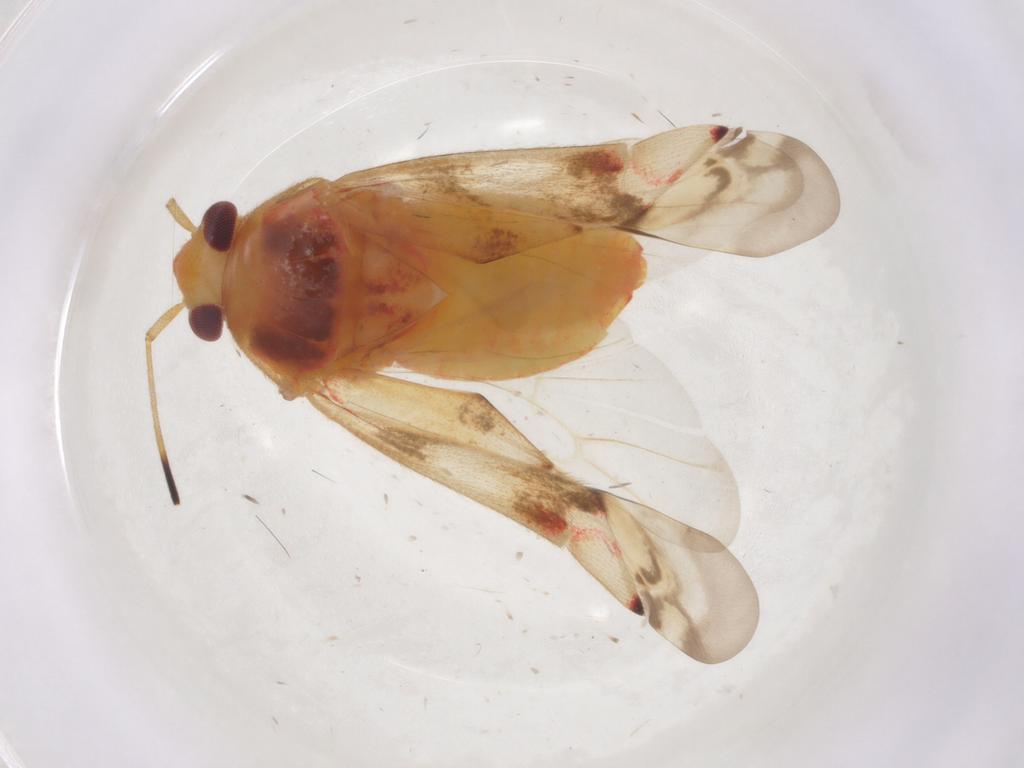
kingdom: Animalia
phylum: Arthropoda
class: Insecta
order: Hemiptera
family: Miridae
